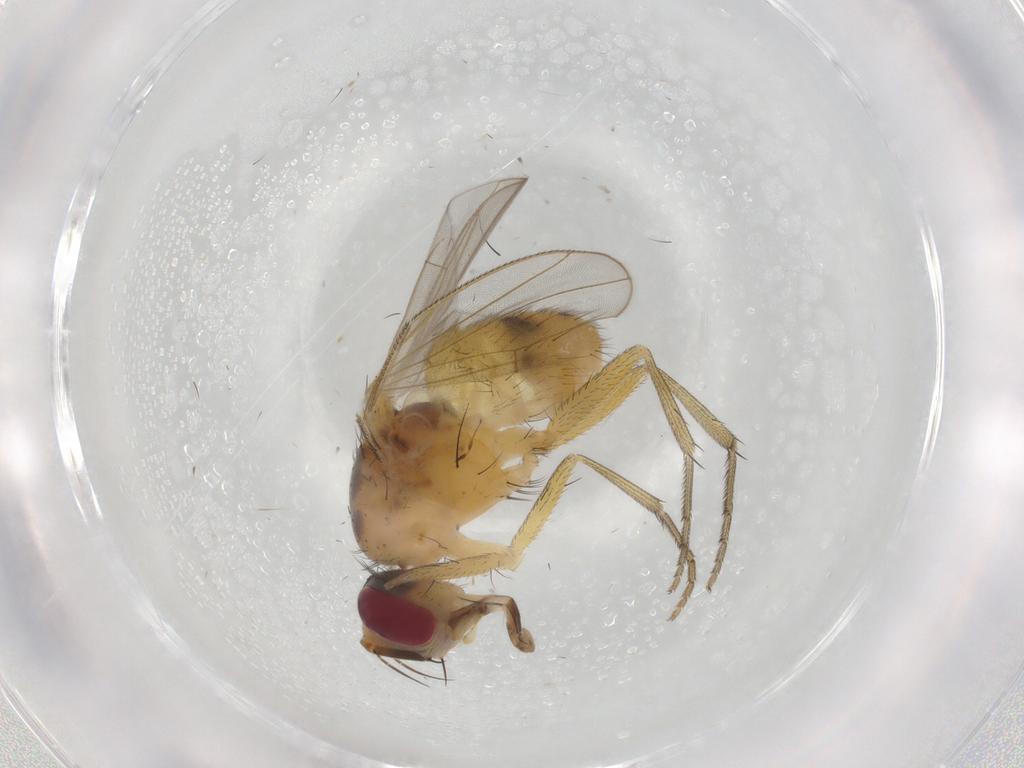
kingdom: Animalia
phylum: Arthropoda
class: Insecta
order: Diptera
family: Muscidae
